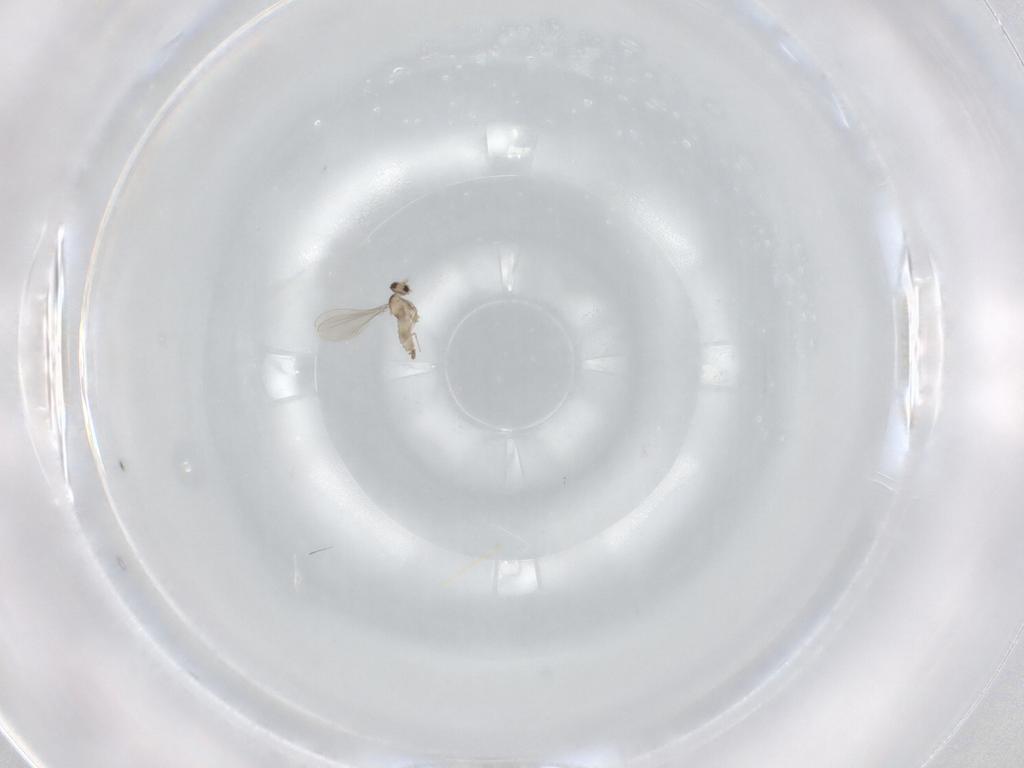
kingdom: Animalia
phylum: Arthropoda
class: Insecta
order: Diptera
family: Cecidomyiidae
